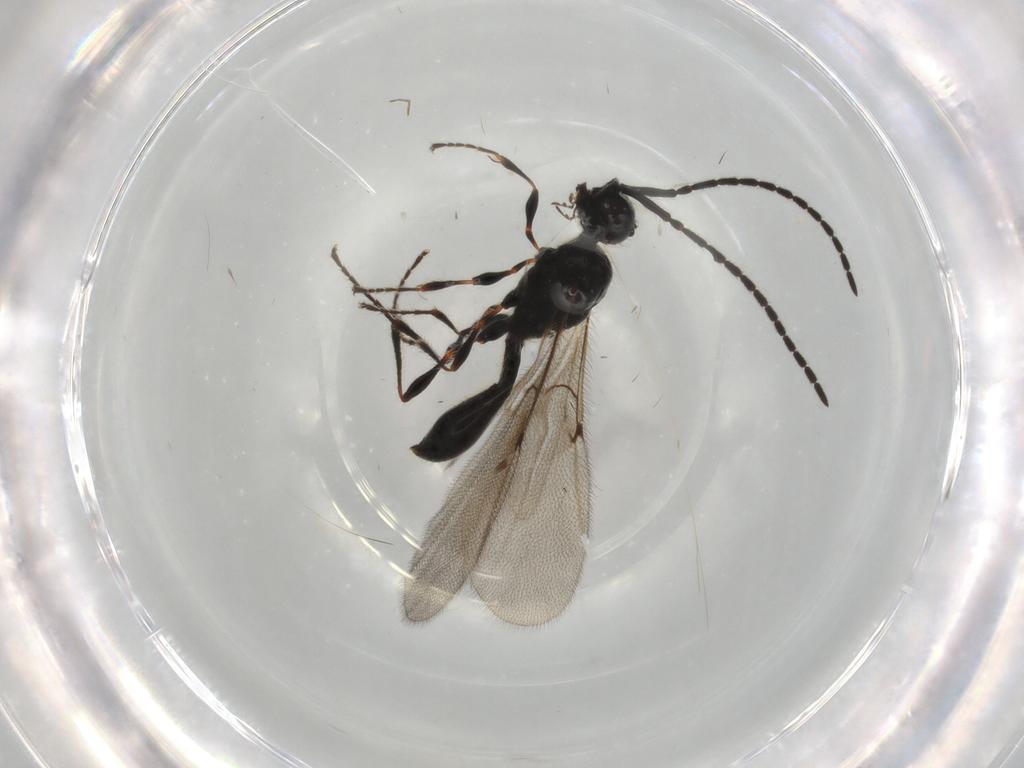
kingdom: Animalia
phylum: Arthropoda
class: Insecta
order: Hymenoptera
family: Diapriidae
